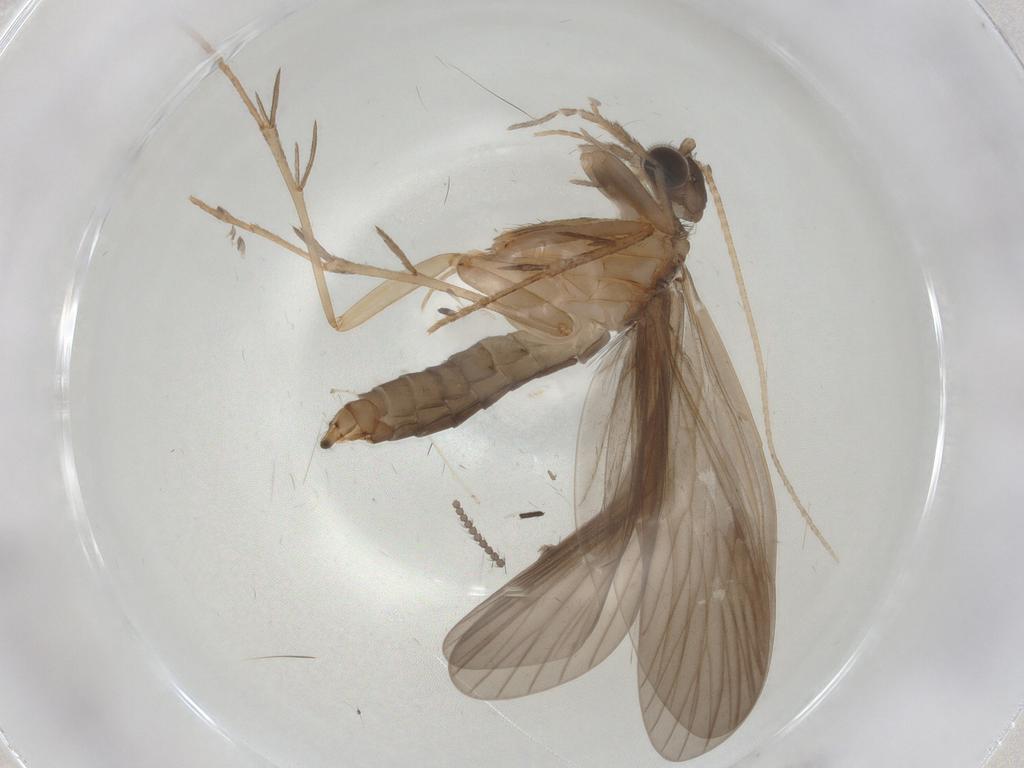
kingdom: Animalia
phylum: Arthropoda
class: Insecta
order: Trichoptera
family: Philopotamidae
